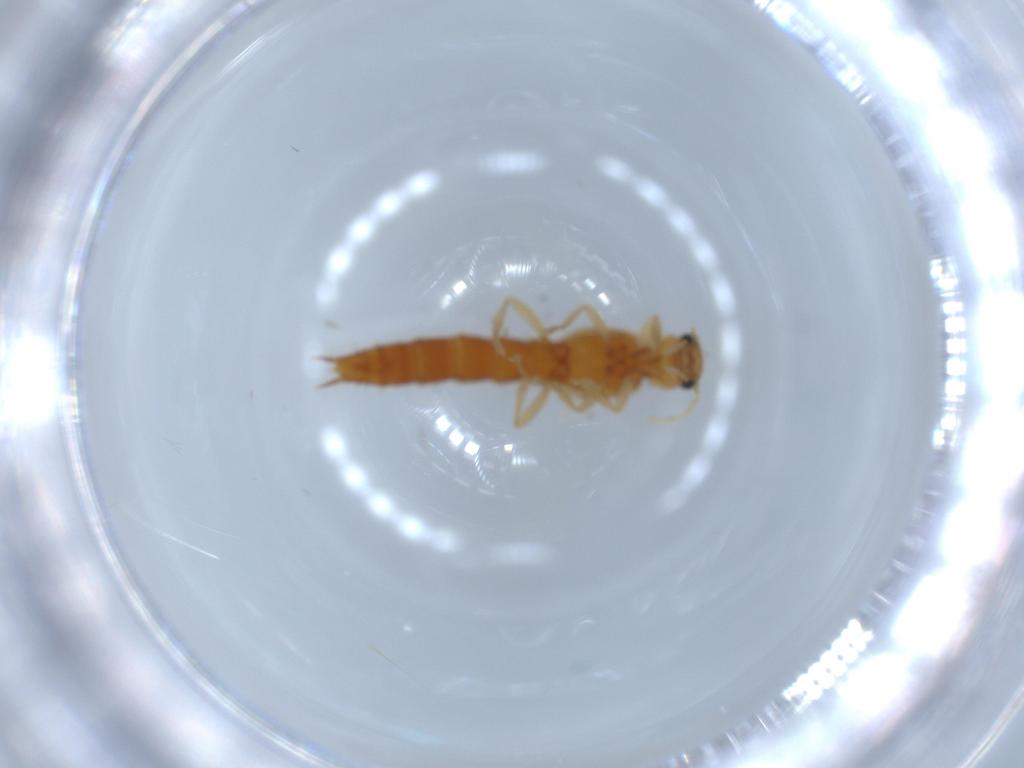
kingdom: Animalia
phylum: Arthropoda
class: Insecta
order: Coleoptera
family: Staphylinidae
